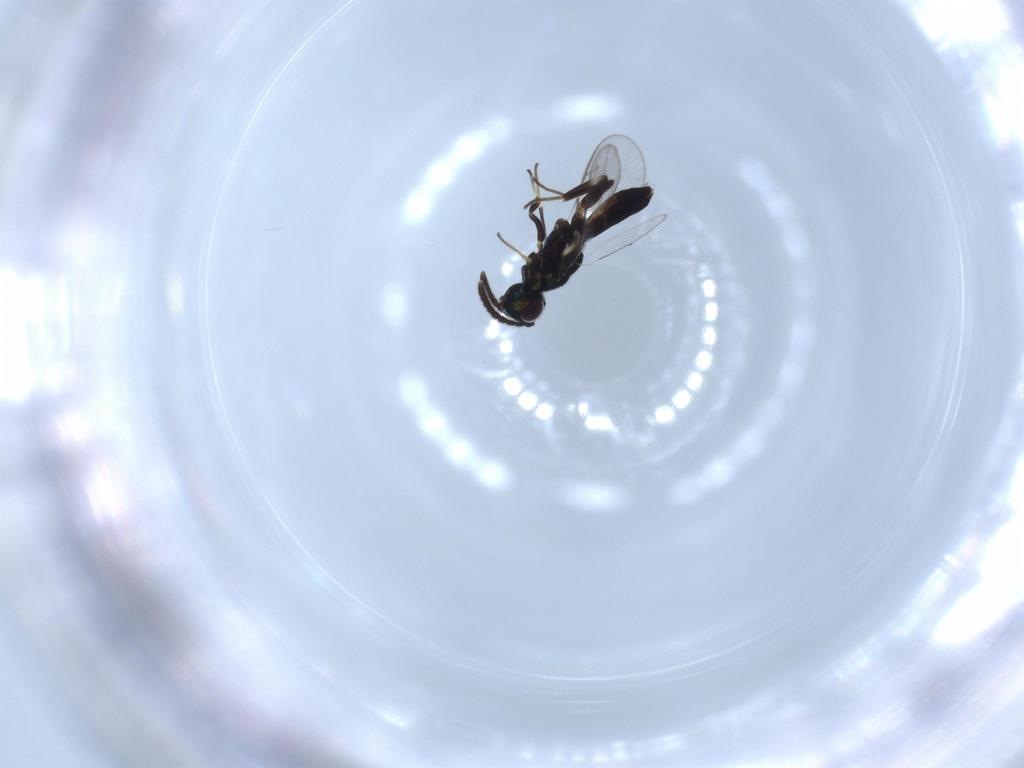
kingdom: Animalia
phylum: Arthropoda
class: Insecta
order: Hymenoptera
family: Eupelmidae
